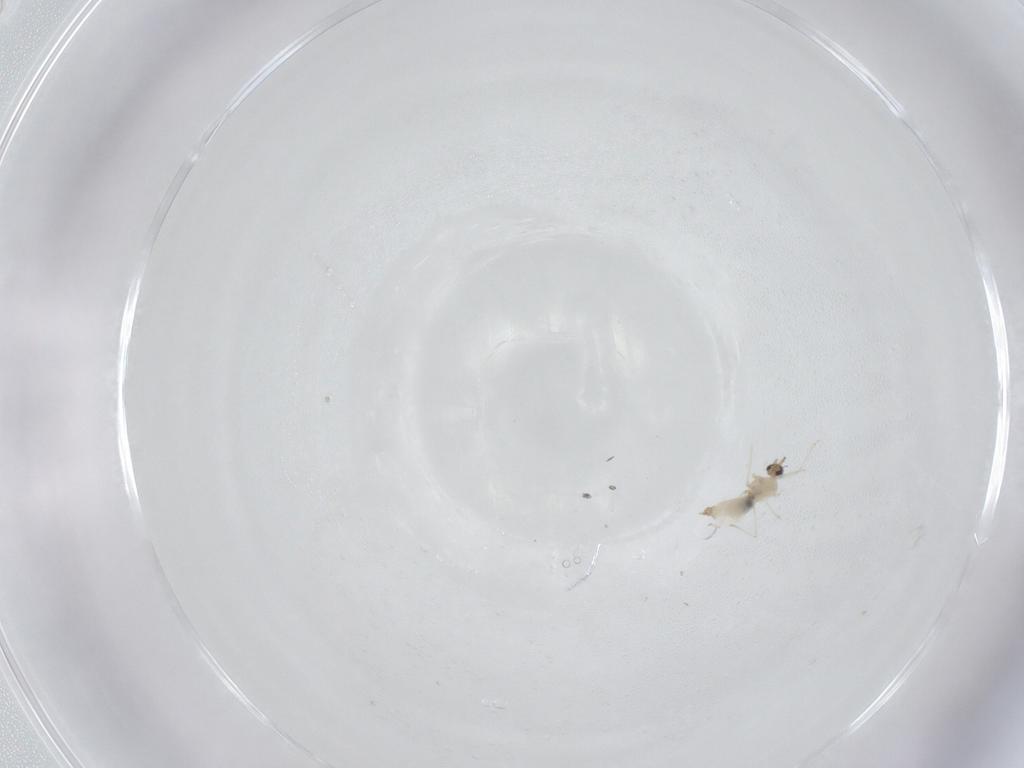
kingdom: Animalia
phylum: Arthropoda
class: Insecta
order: Diptera
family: Cecidomyiidae
